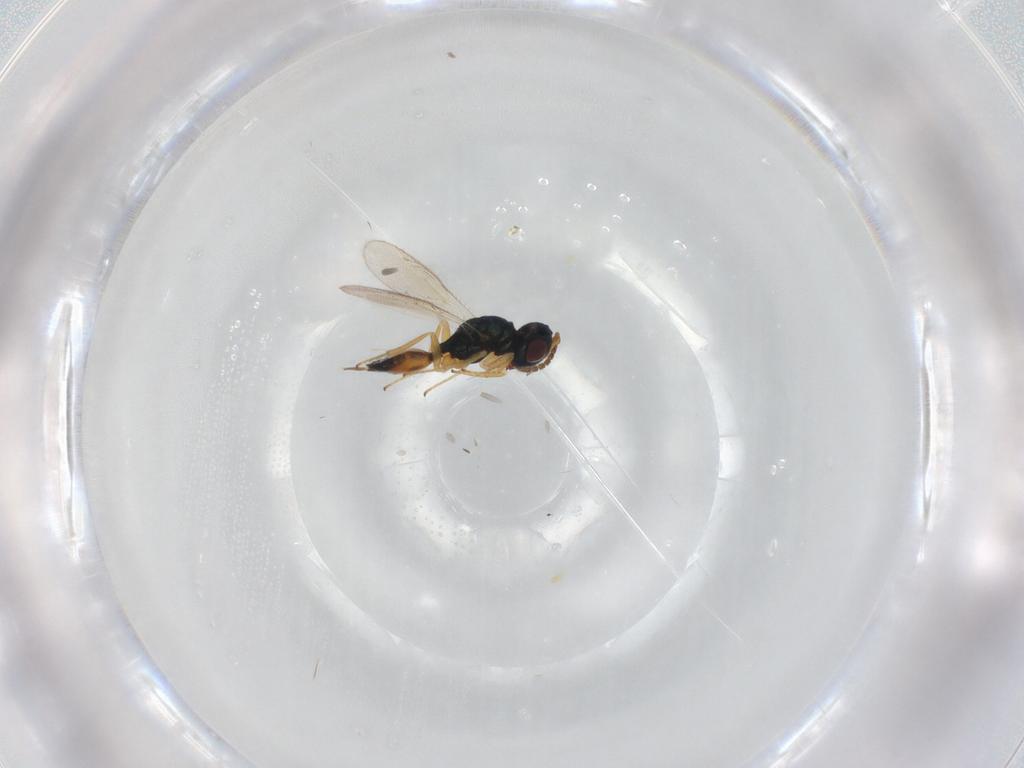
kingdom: Animalia
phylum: Arthropoda
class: Insecta
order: Hymenoptera
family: Pteromalidae
